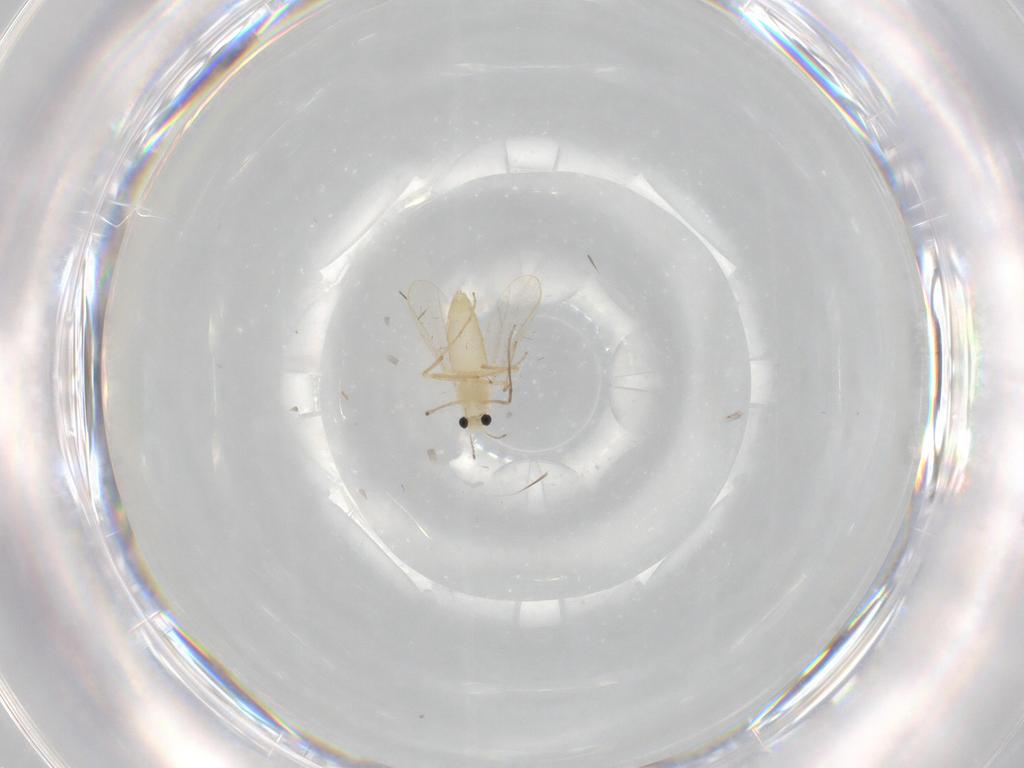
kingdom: Animalia
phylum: Arthropoda
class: Insecta
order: Diptera
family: Chironomidae
